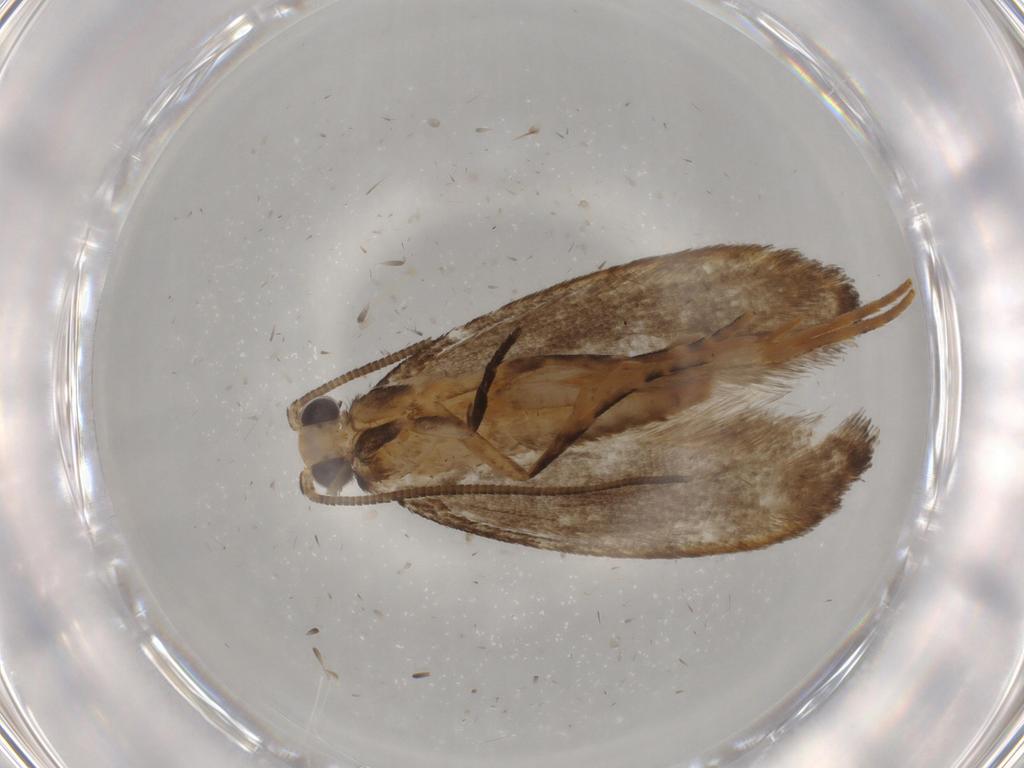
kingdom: Animalia
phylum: Arthropoda
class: Insecta
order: Lepidoptera
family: Tineidae
